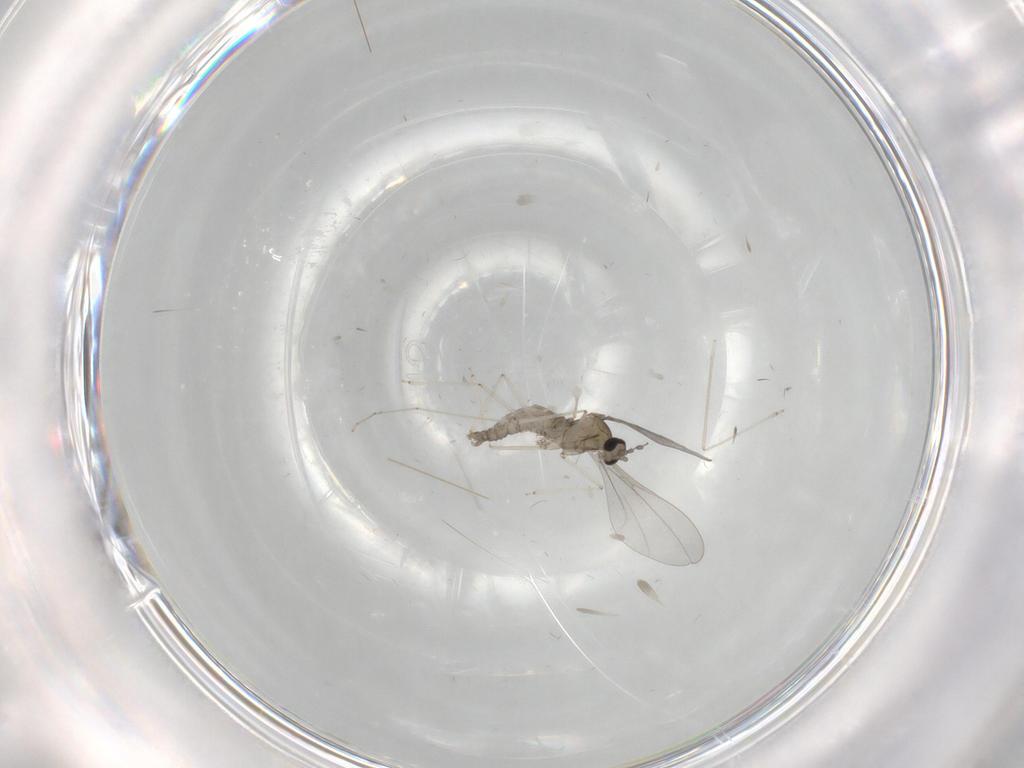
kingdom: Animalia
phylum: Arthropoda
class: Insecta
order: Diptera
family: Cecidomyiidae
